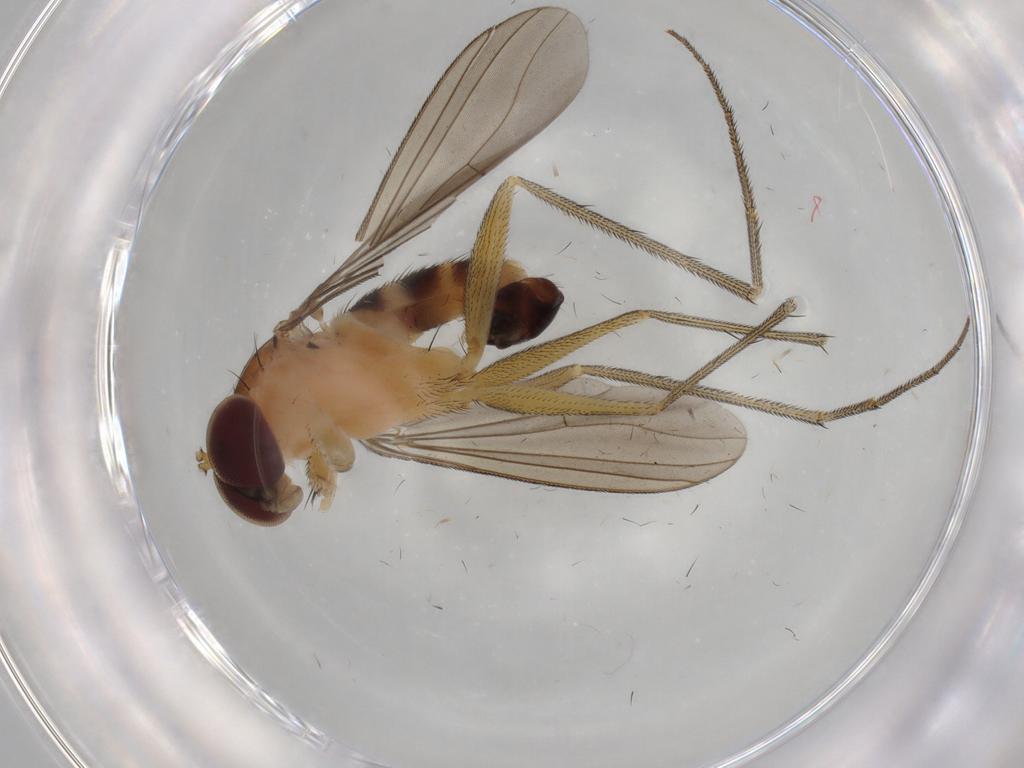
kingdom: Animalia
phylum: Arthropoda
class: Insecta
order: Diptera
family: Dolichopodidae
